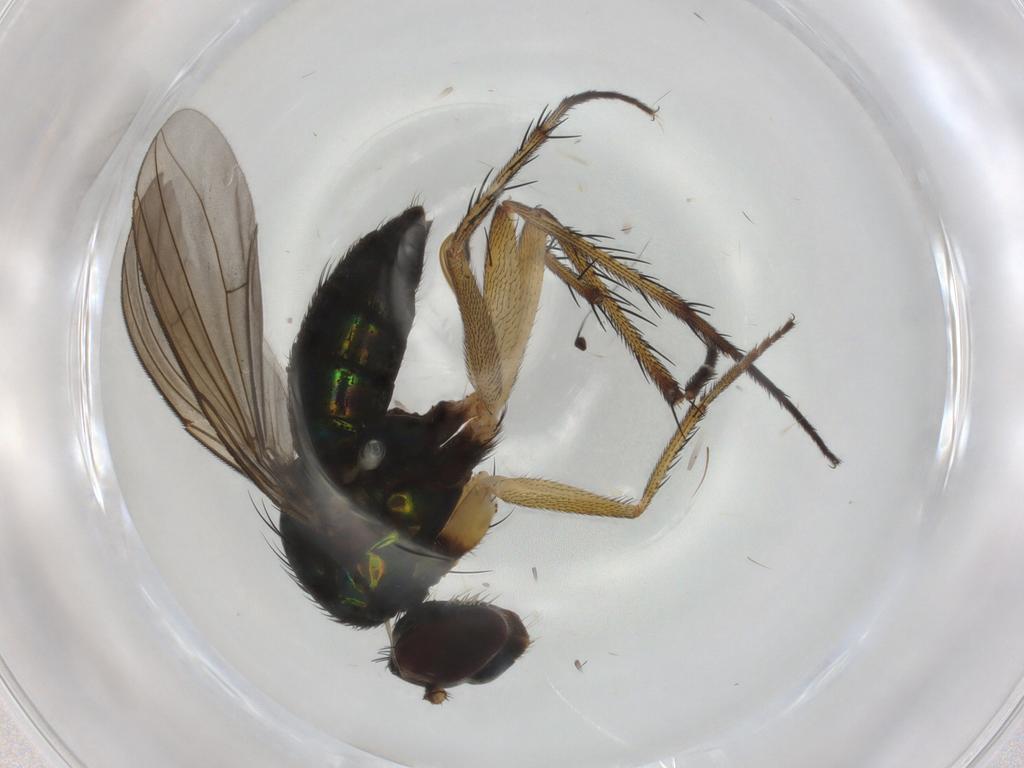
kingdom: Animalia
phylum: Arthropoda
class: Insecta
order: Diptera
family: Dolichopodidae
